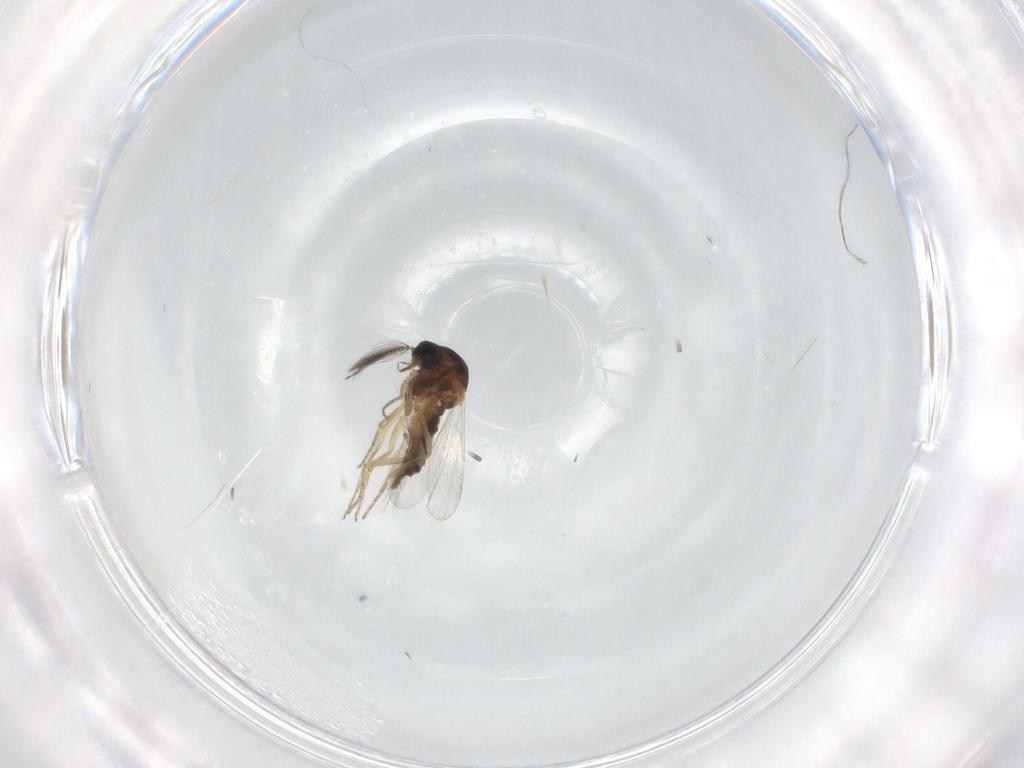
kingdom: Animalia
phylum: Arthropoda
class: Insecta
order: Diptera
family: Ceratopogonidae
